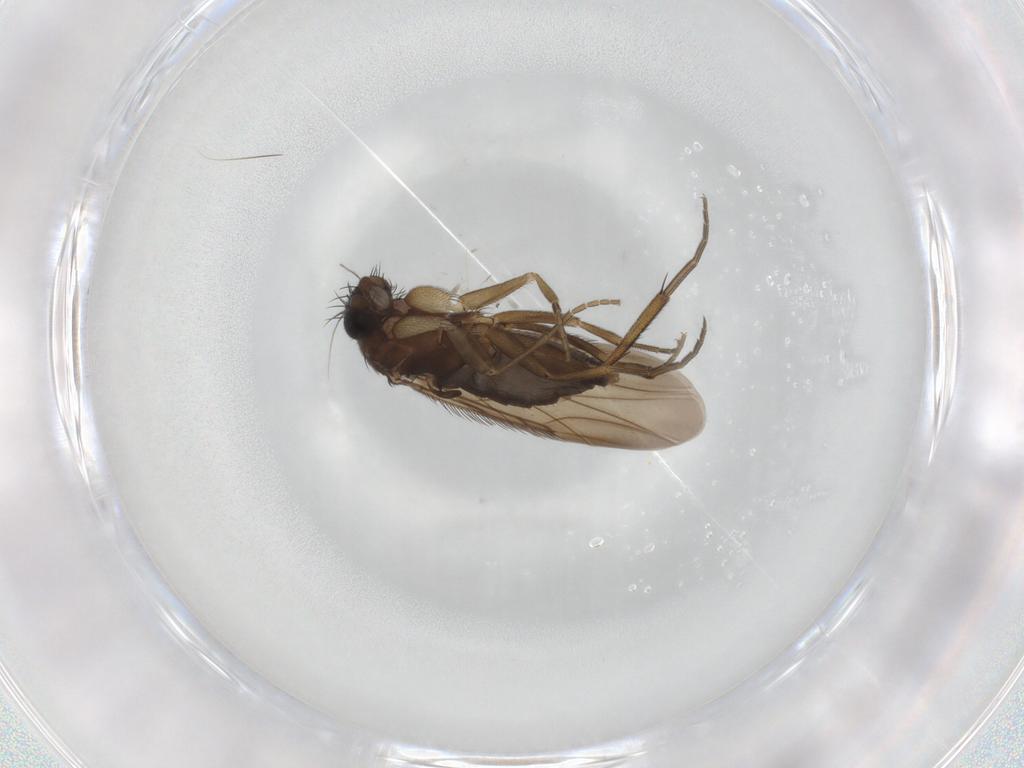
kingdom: Animalia
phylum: Arthropoda
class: Insecta
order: Diptera
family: Phoridae
